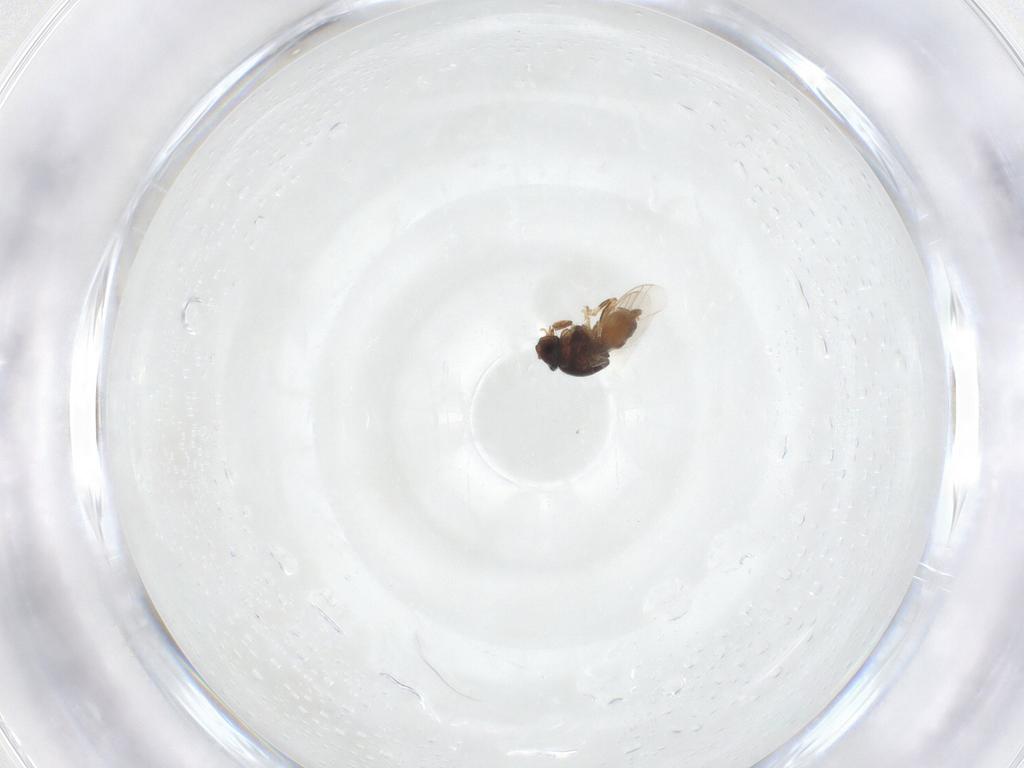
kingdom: Animalia
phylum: Arthropoda
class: Insecta
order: Diptera
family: Chloropidae
